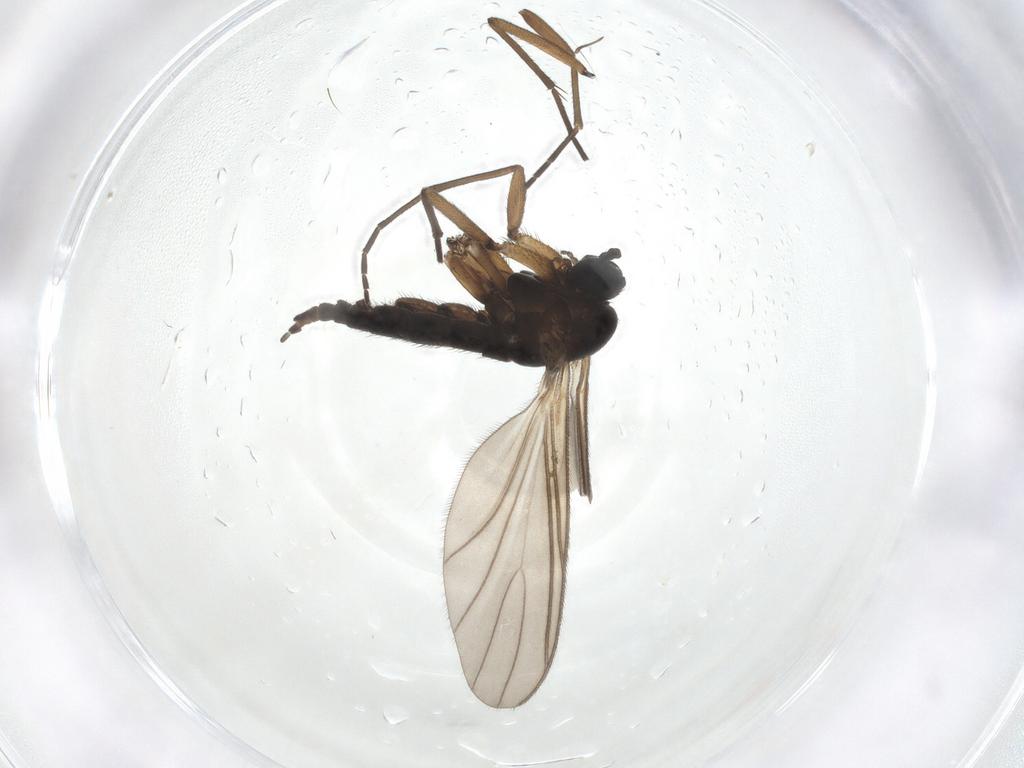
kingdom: Animalia
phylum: Arthropoda
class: Insecta
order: Diptera
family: Sciaridae
